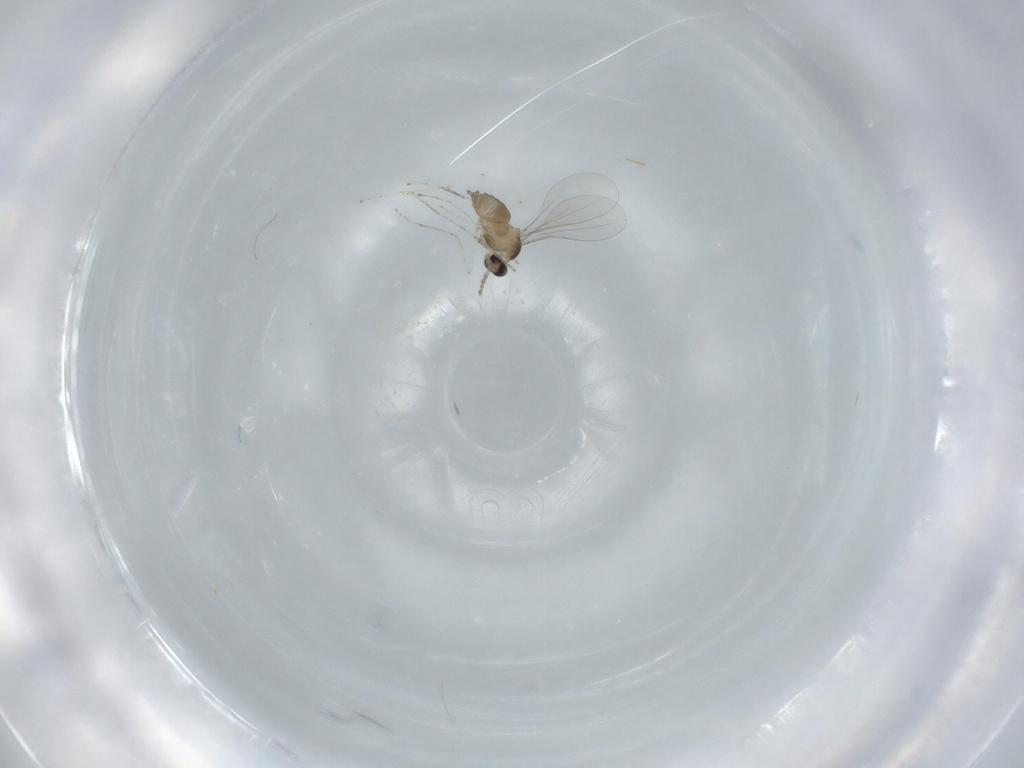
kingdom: Animalia
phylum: Arthropoda
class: Insecta
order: Diptera
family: Cecidomyiidae
